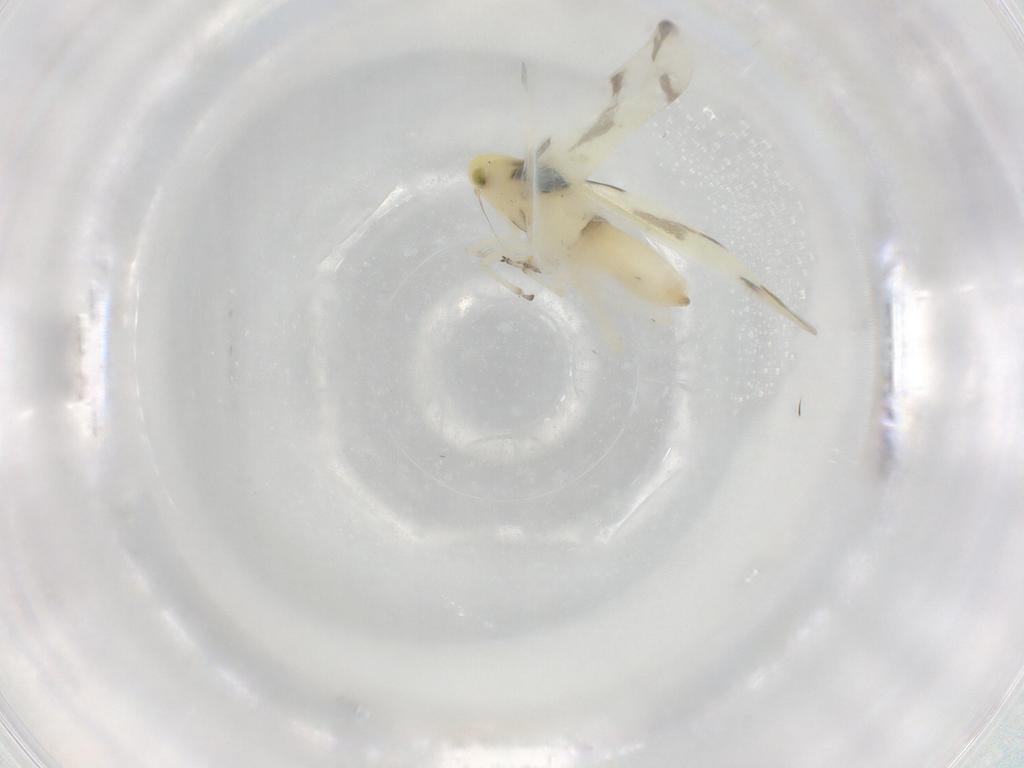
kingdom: Animalia
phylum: Arthropoda
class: Insecta
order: Hemiptera
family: Cicadellidae
